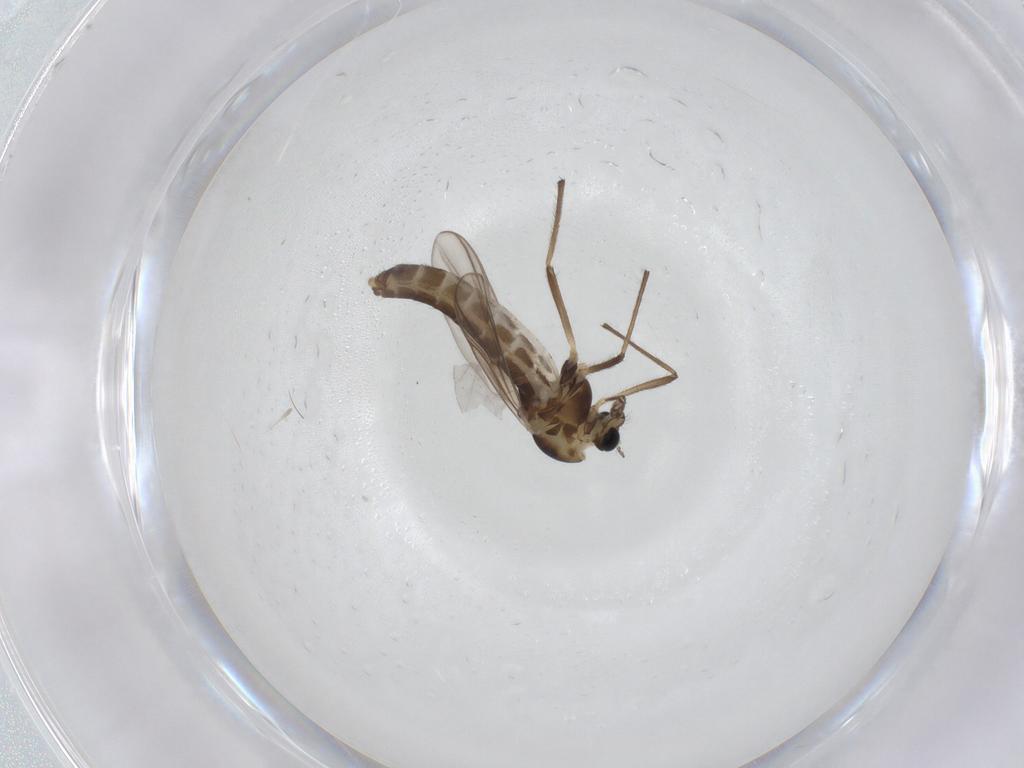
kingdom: Animalia
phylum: Arthropoda
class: Insecta
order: Diptera
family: Chironomidae
